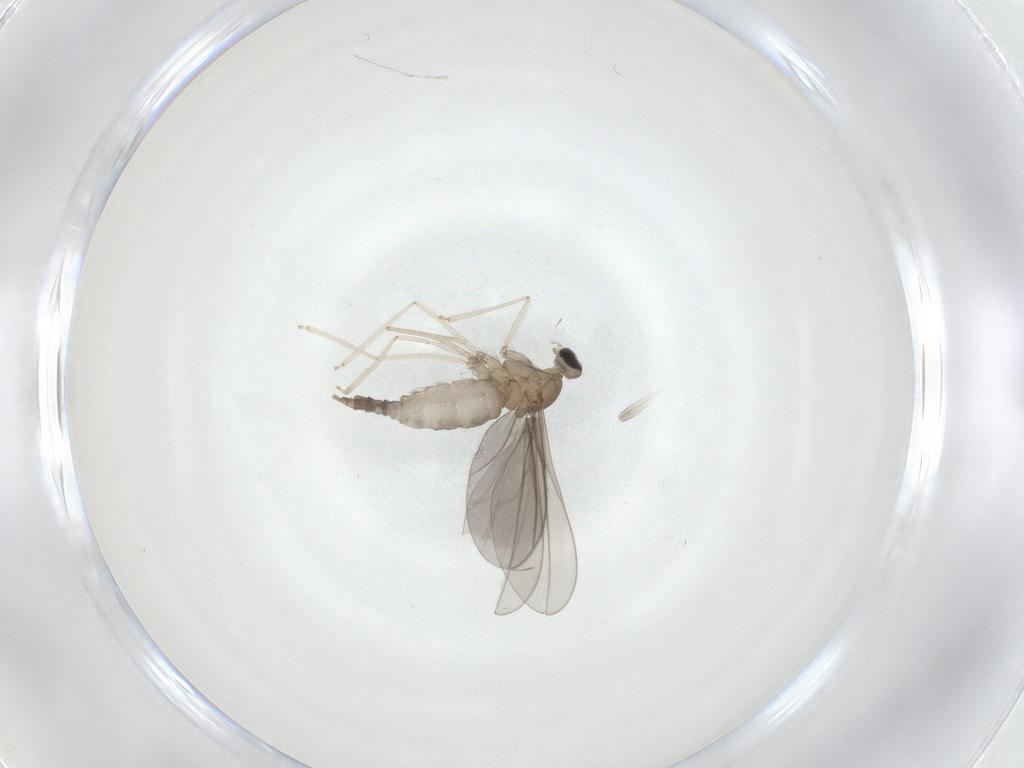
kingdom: Animalia
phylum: Arthropoda
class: Insecta
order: Diptera
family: Cecidomyiidae
